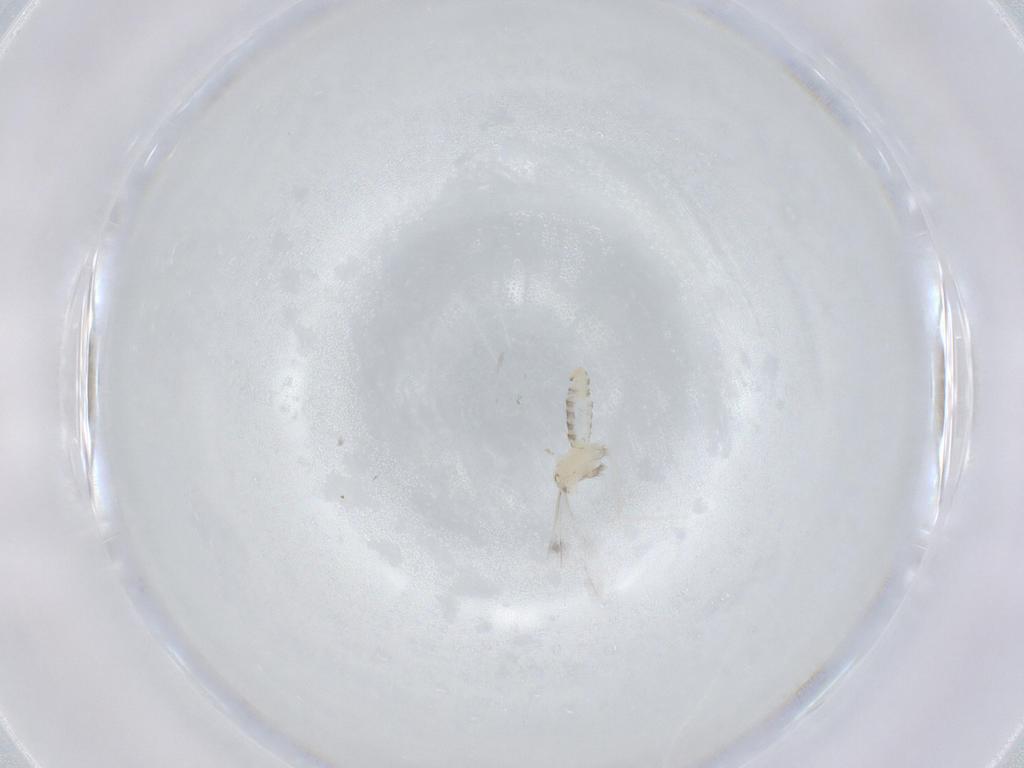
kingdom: Animalia
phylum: Arthropoda
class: Insecta
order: Diptera
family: Cecidomyiidae
